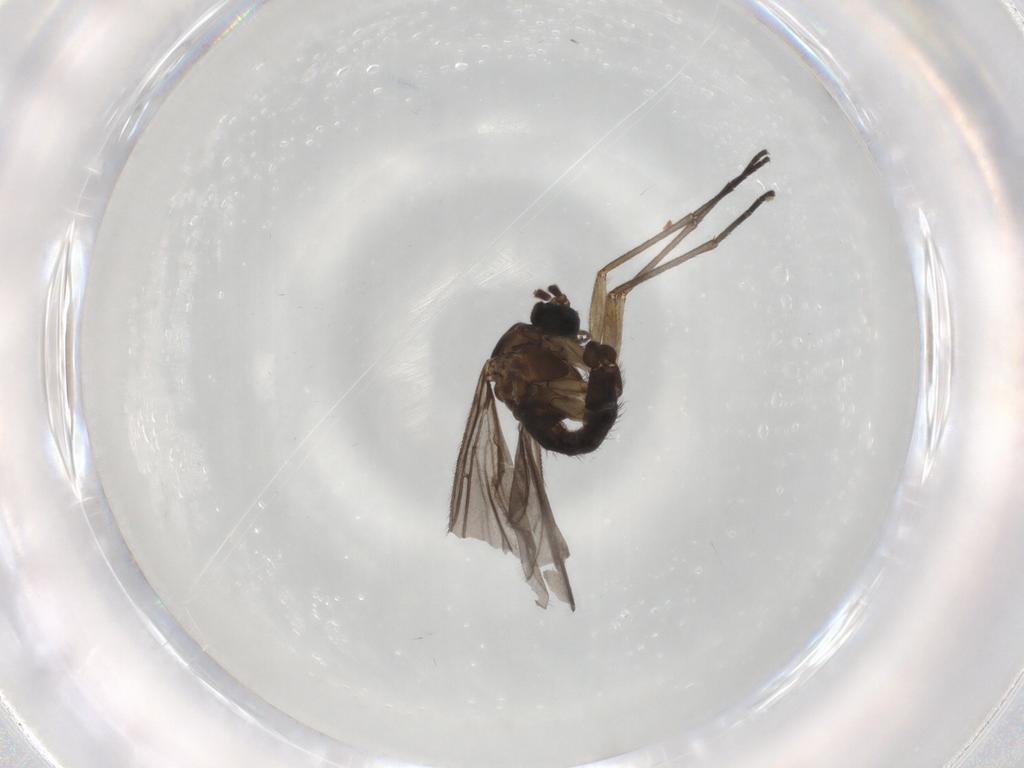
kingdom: Animalia
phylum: Arthropoda
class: Insecta
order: Diptera
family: Sciaridae
